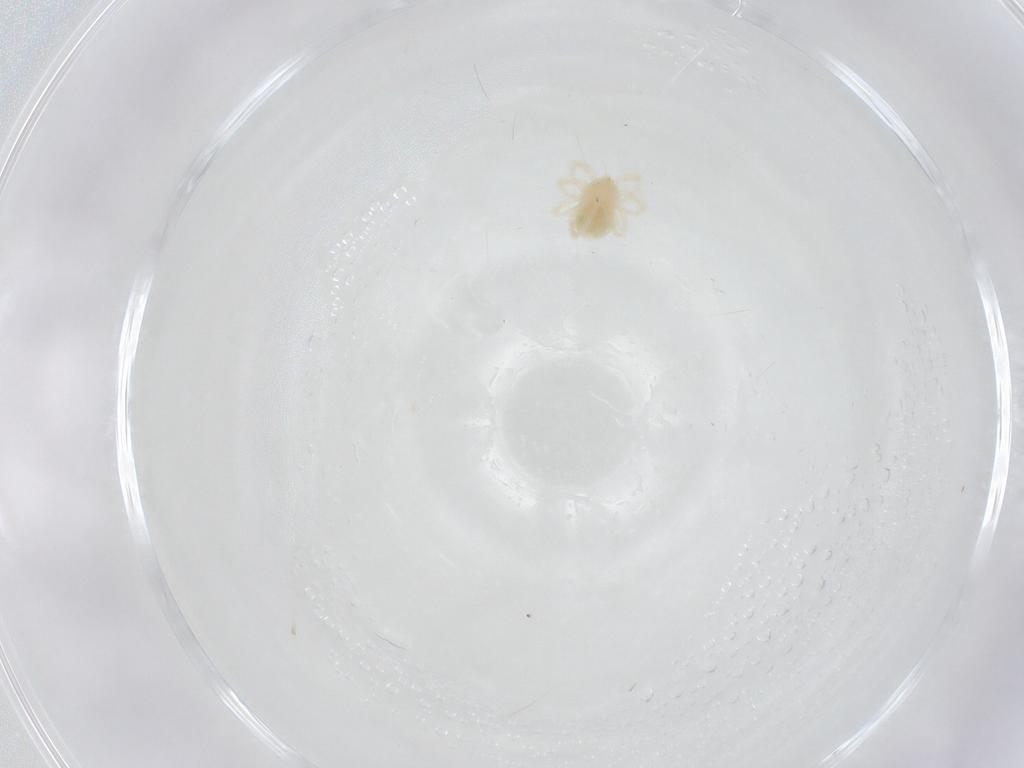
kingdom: Animalia
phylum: Arthropoda
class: Arachnida
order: Trombidiformes
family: Anystidae
